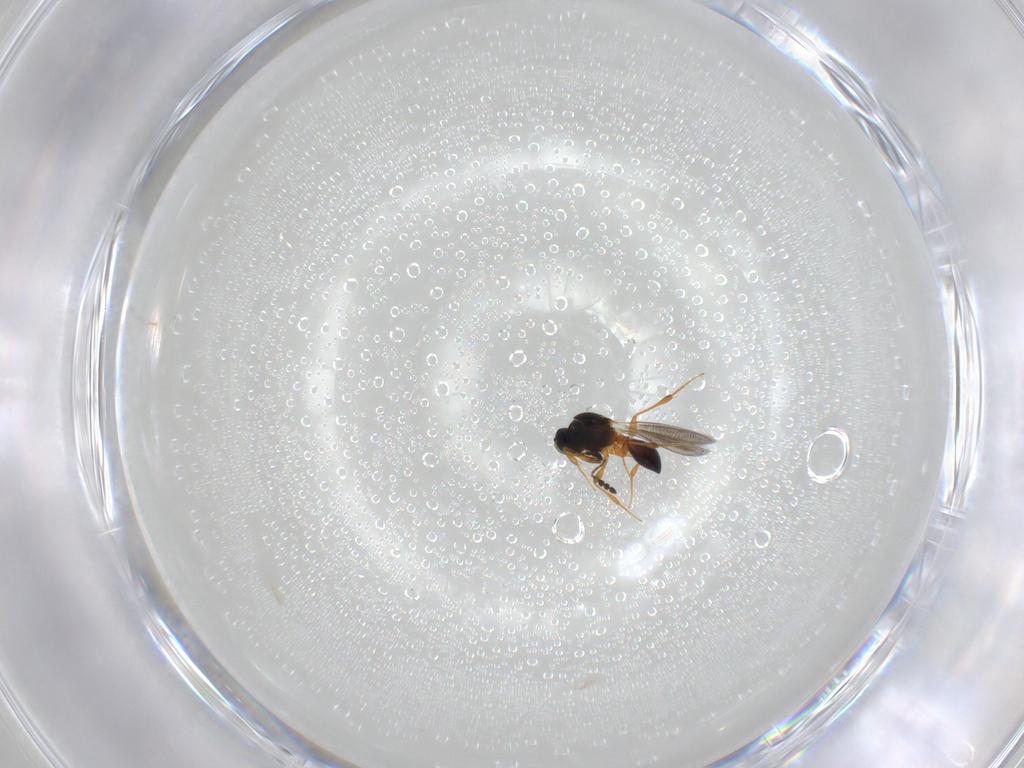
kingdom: Animalia
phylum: Arthropoda
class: Insecta
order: Hymenoptera
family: Platygastridae
